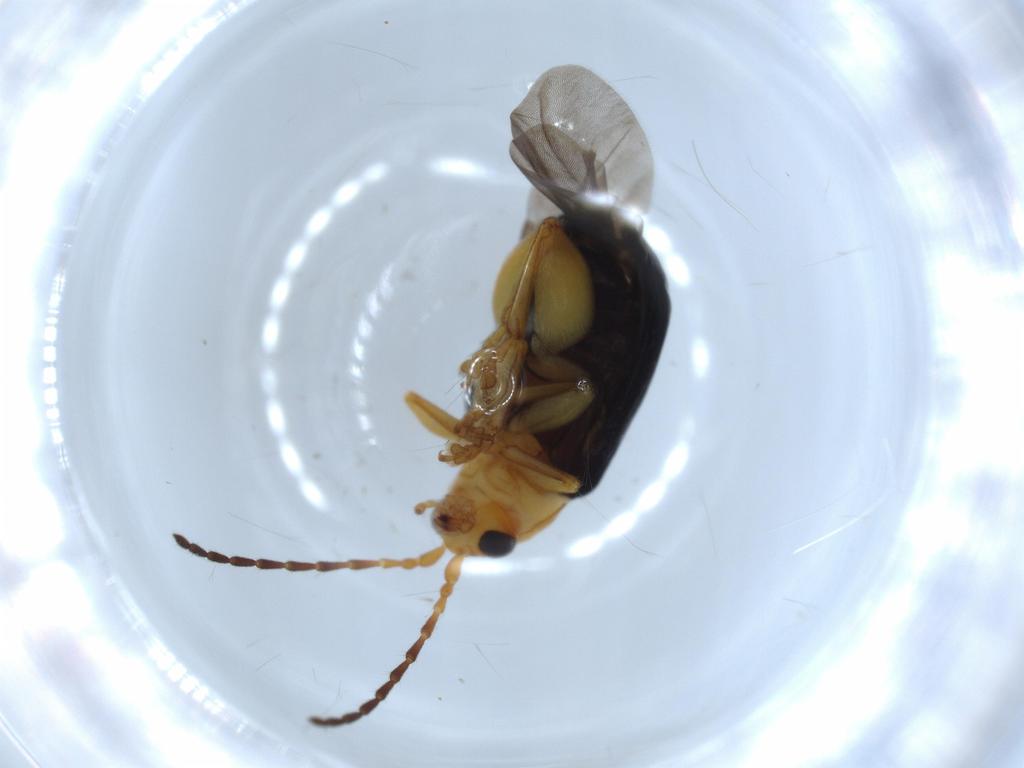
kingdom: Animalia
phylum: Arthropoda
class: Insecta
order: Coleoptera
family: Chrysomelidae
